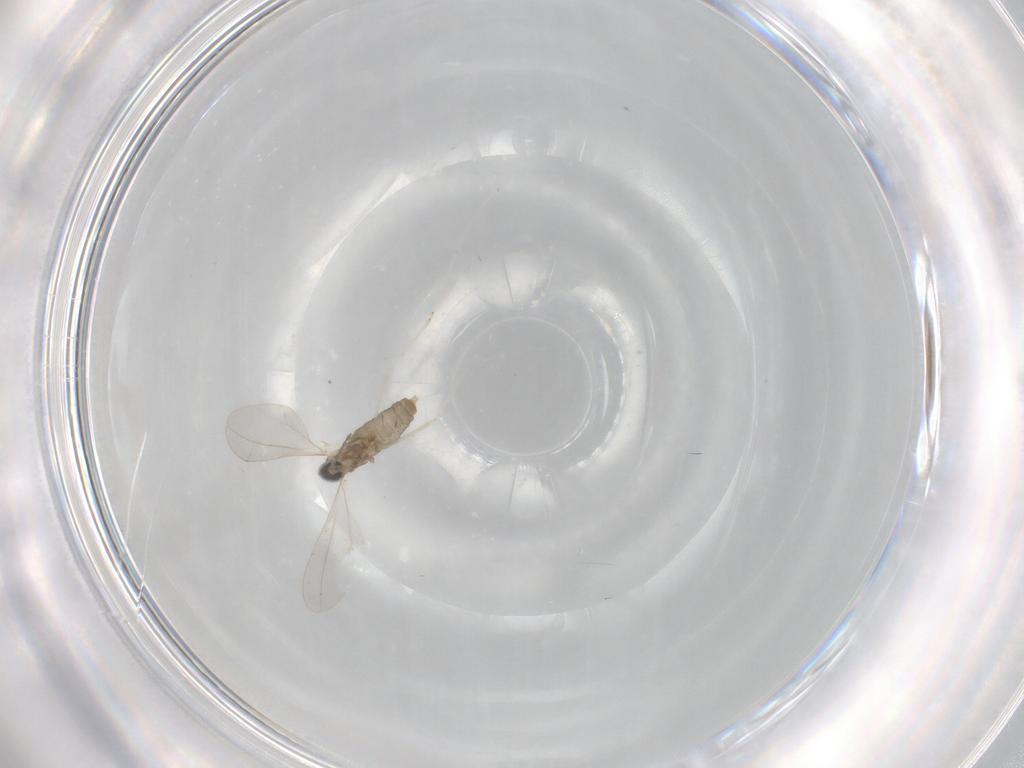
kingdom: Animalia
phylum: Arthropoda
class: Insecta
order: Diptera
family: Cecidomyiidae
